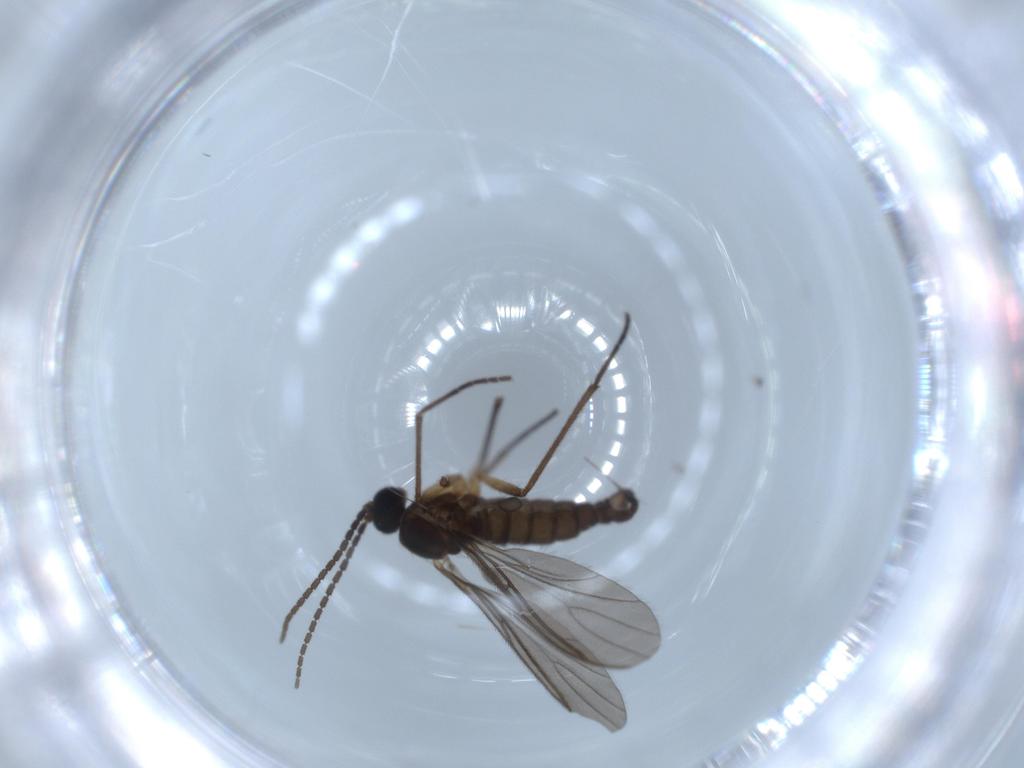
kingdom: Animalia
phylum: Arthropoda
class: Insecta
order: Diptera
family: Sciaridae
